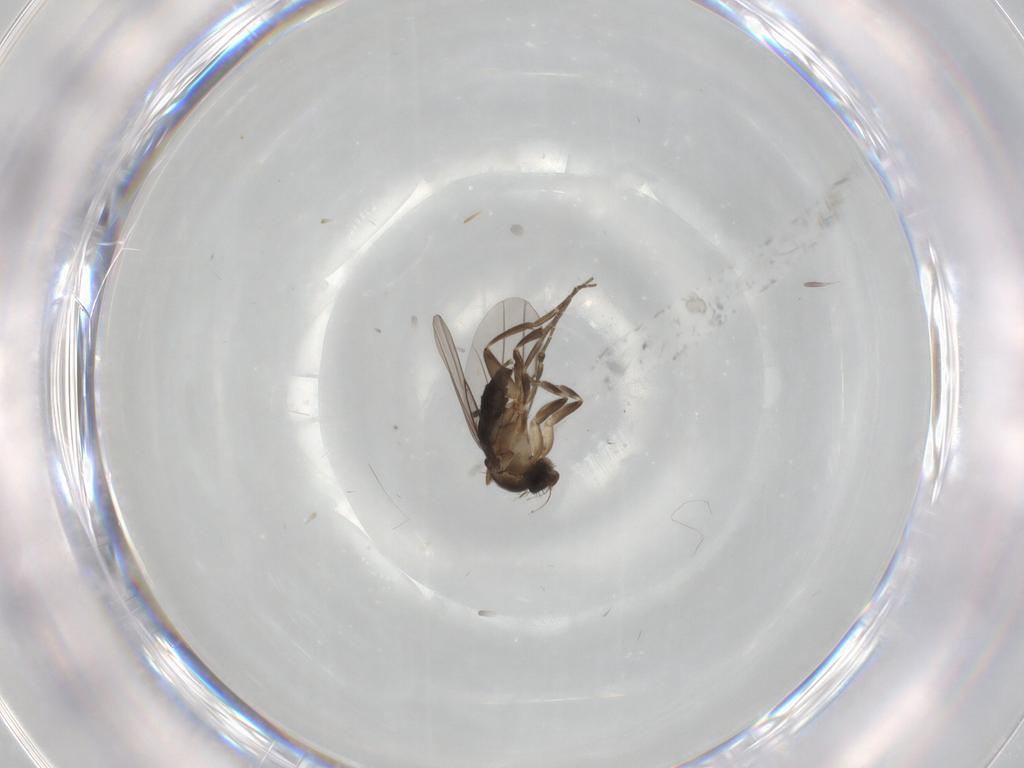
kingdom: Animalia
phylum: Arthropoda
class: Insecta
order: Diptera
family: Phoridae
